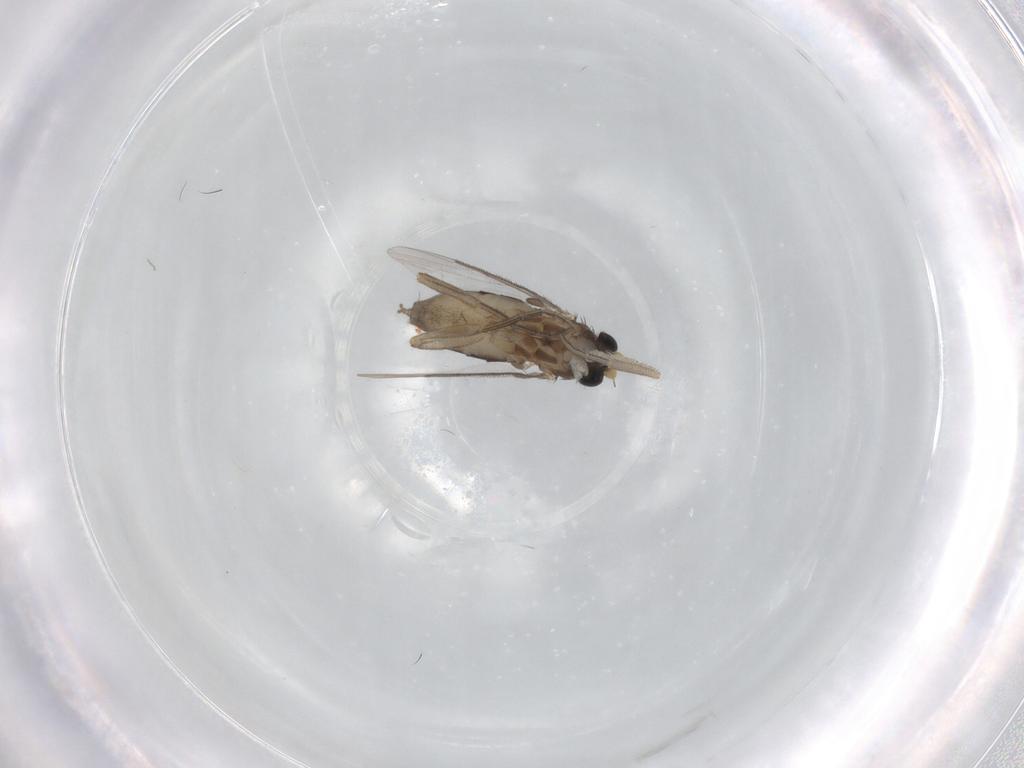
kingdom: Animalia
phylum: Arthropoda
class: Insecta
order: Diptera
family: Phoridae
